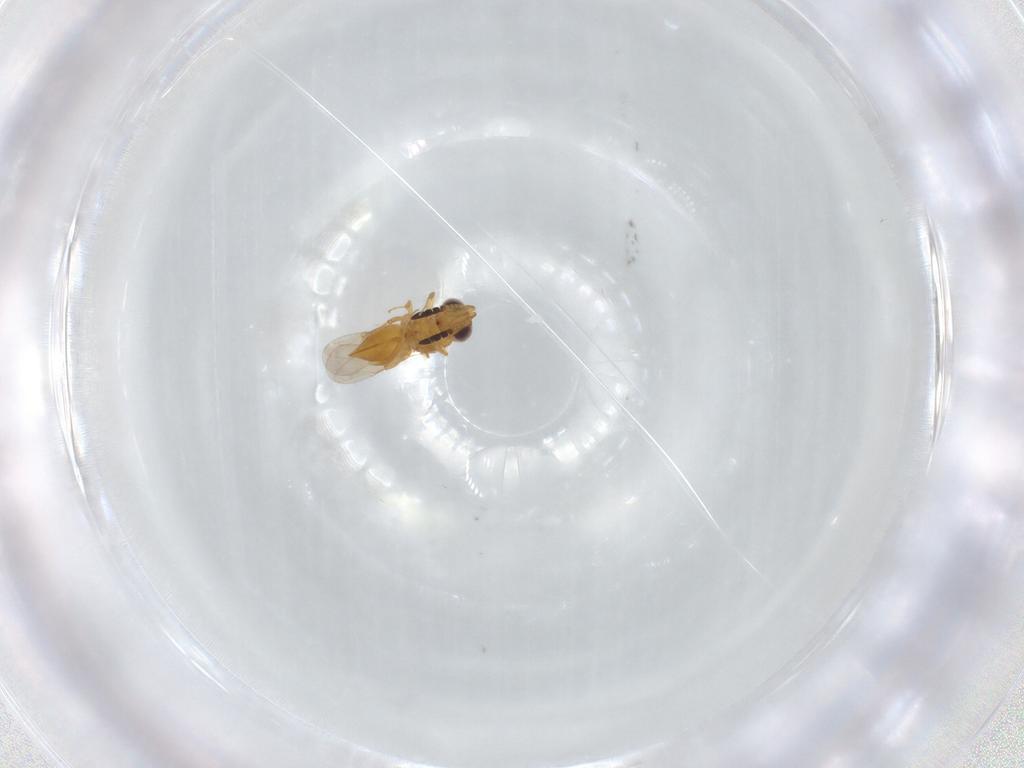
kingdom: Animalia
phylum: Arthropoda
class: Insecta
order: Hymenoptera
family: Ceraphronidae
